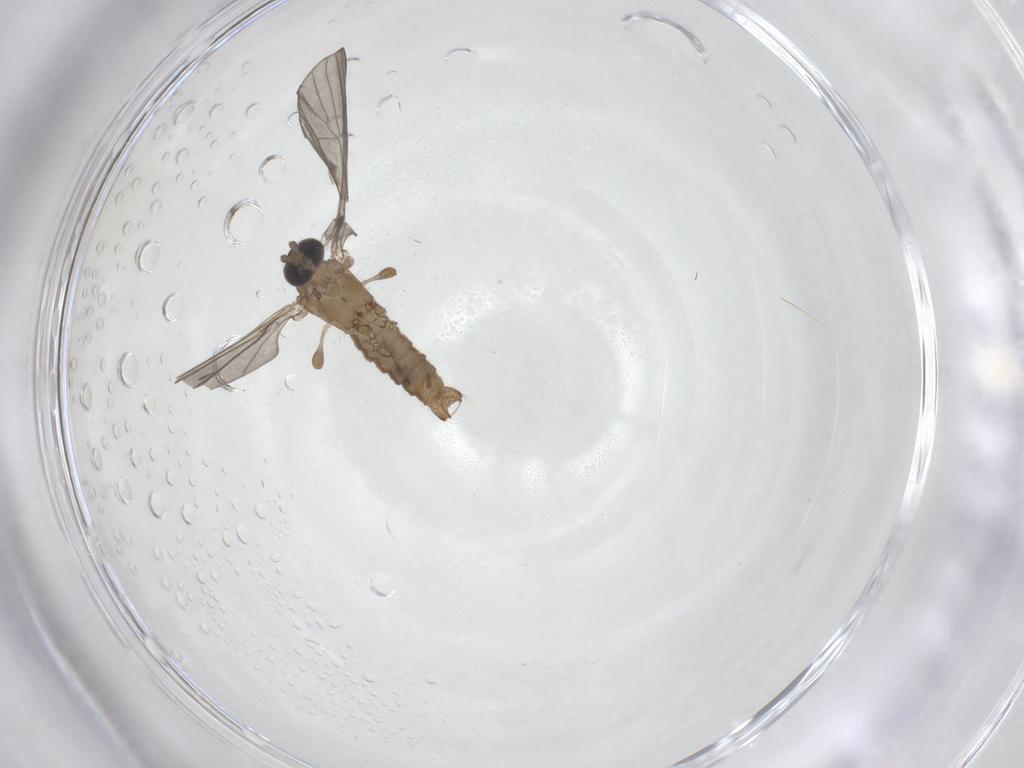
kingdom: Animalia
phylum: Arthropoda
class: Insecta
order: Diptera
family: Limoniidae
